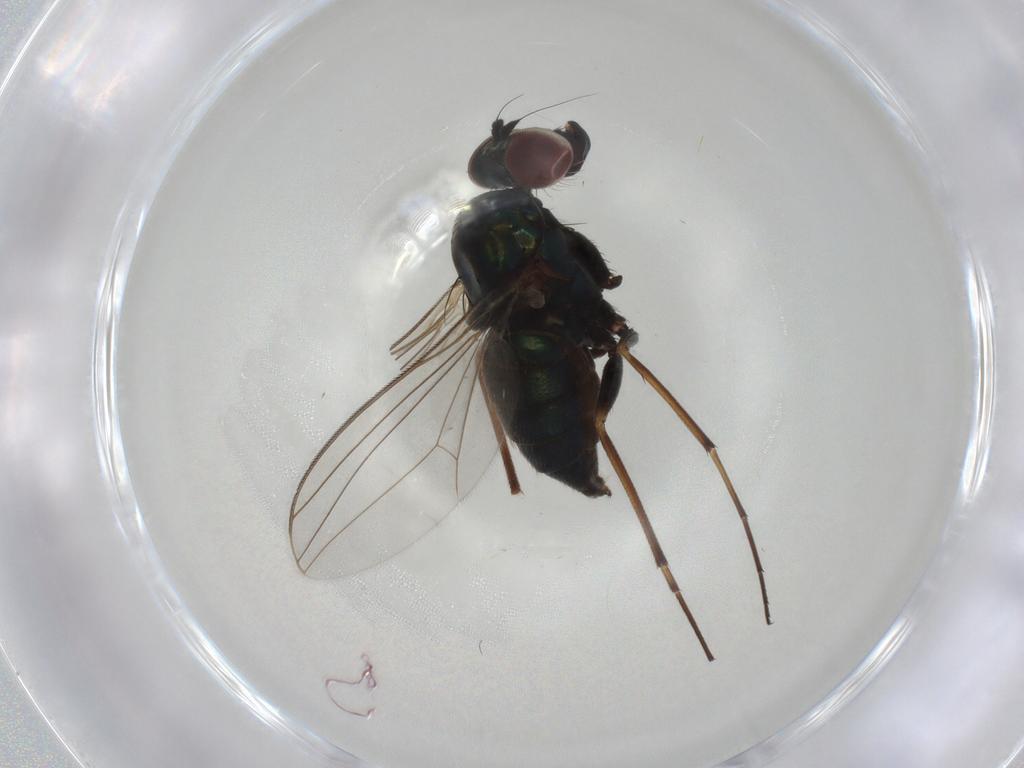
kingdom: Animalia
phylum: Arthropoda
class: Insecta
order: Diptera
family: Dolichopodidae
